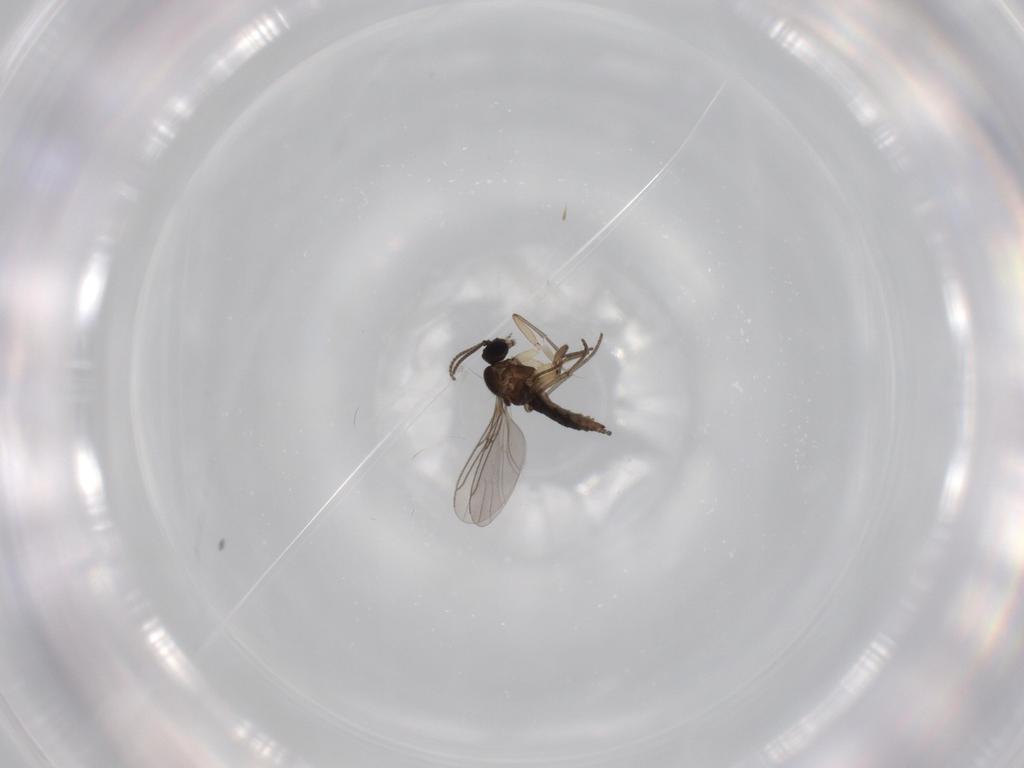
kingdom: Animalia
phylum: Arthropoda
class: Insecta
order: Diptera
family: Sciaridae
